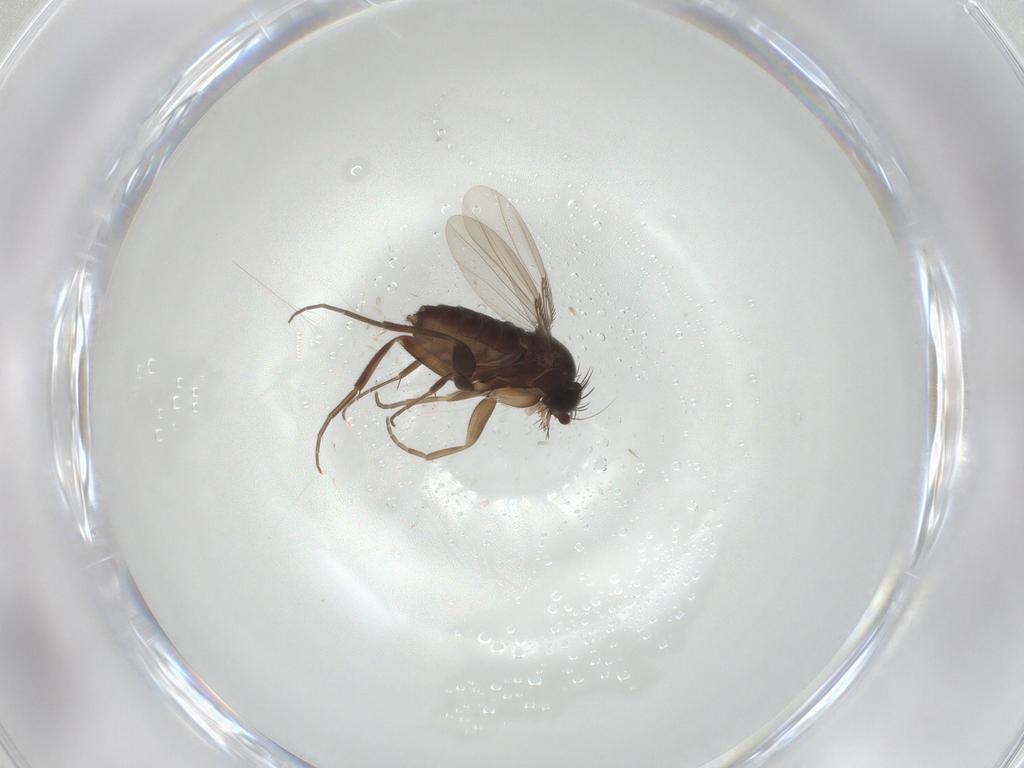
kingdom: Animalia
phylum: Arthropoda
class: Insecta
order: Diptera
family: Phoridae
